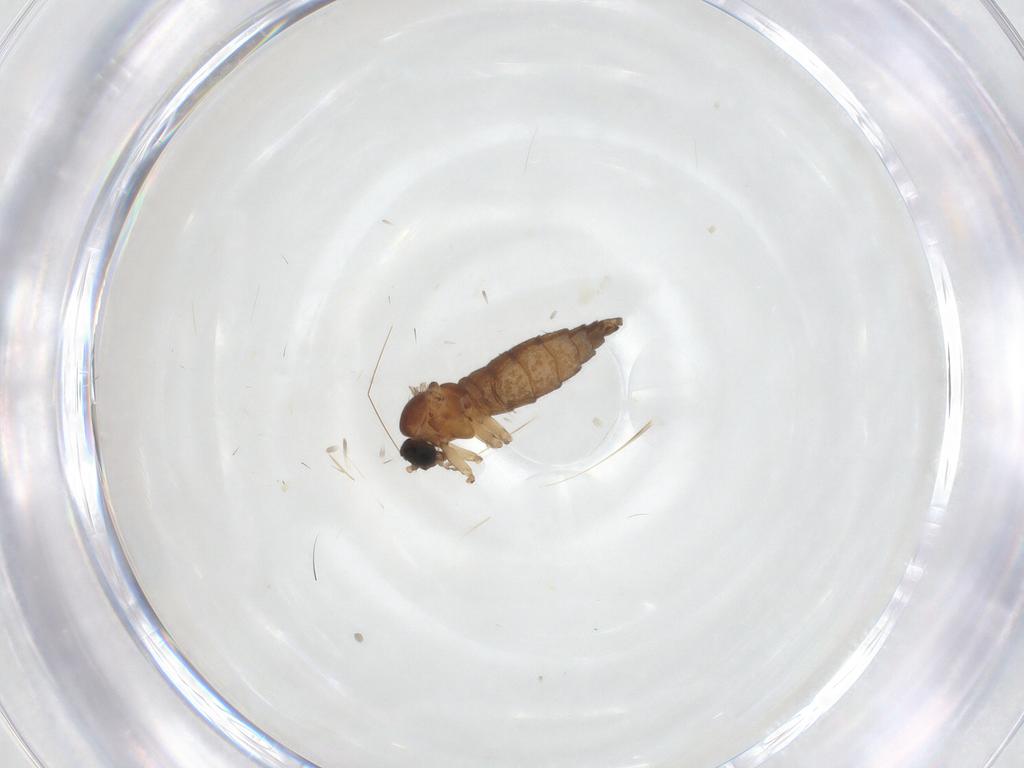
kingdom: Animalia
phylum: Arthropoda
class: Insecta
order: Diptera
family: Sciaridae
